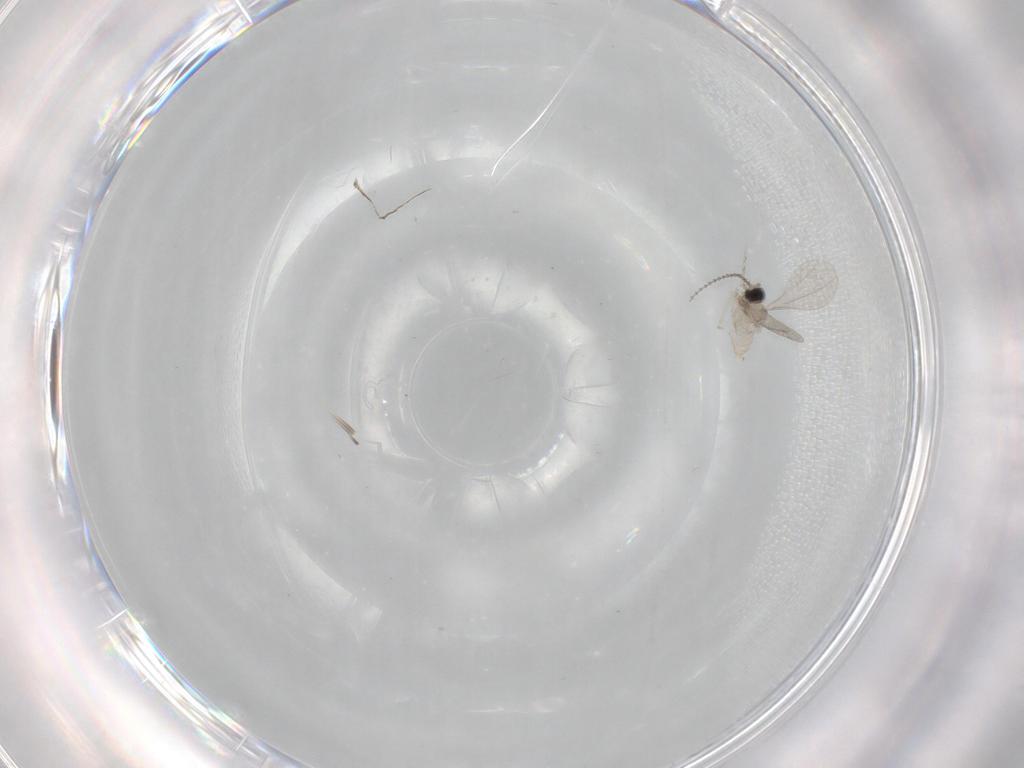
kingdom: Animalia
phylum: Arthropoda
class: Insecta
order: Diptera
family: Cecidomyiidae
